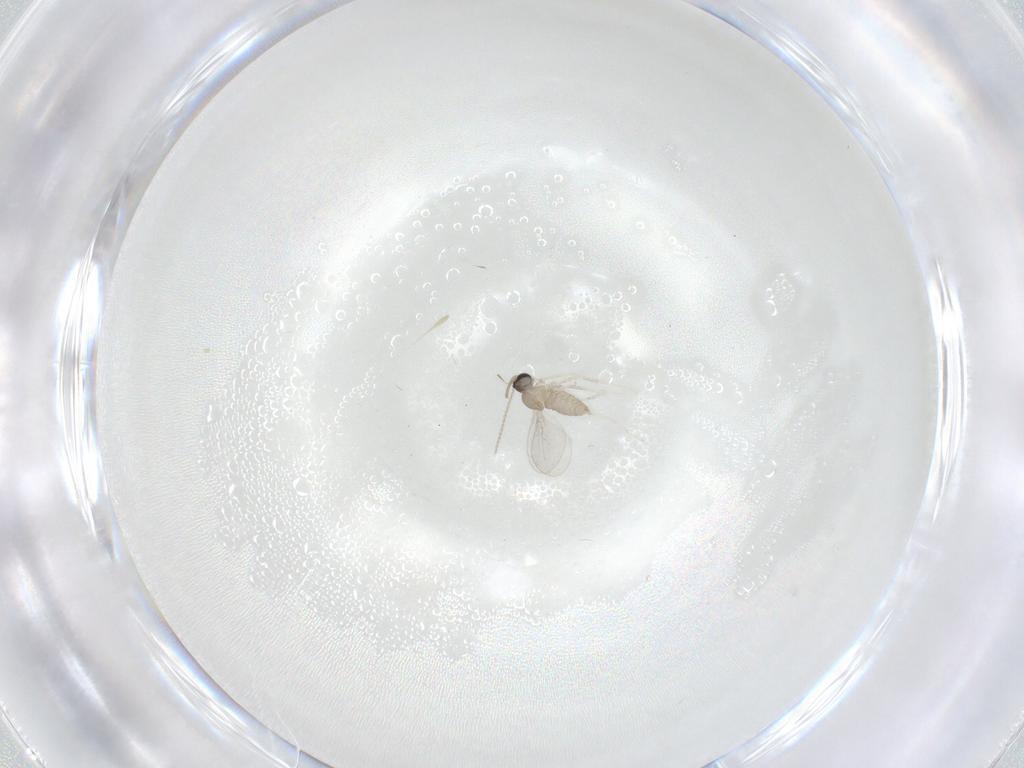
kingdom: Animalia
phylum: Arthropoda
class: Insecta
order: Diptera
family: Cecidomyiidae
